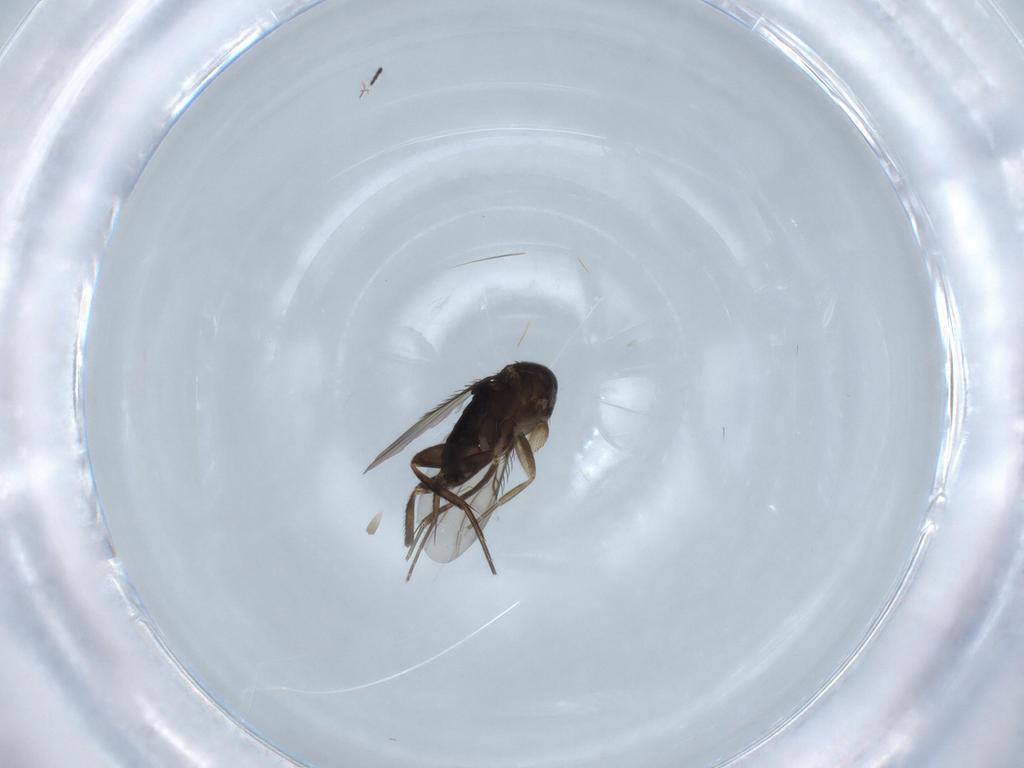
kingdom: Animalia
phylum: Arthropoda
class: Insecta
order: Diptera
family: Phoridae
